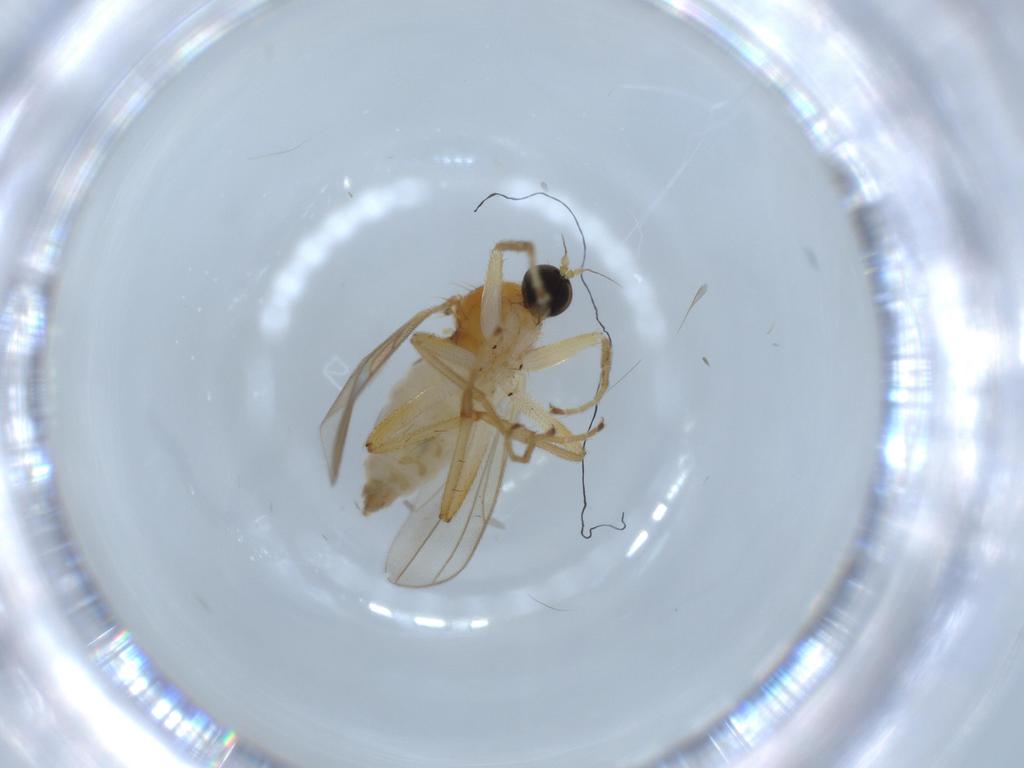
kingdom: Animalia
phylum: Arthropoda
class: Insecta
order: Diptera
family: Hybotidae
